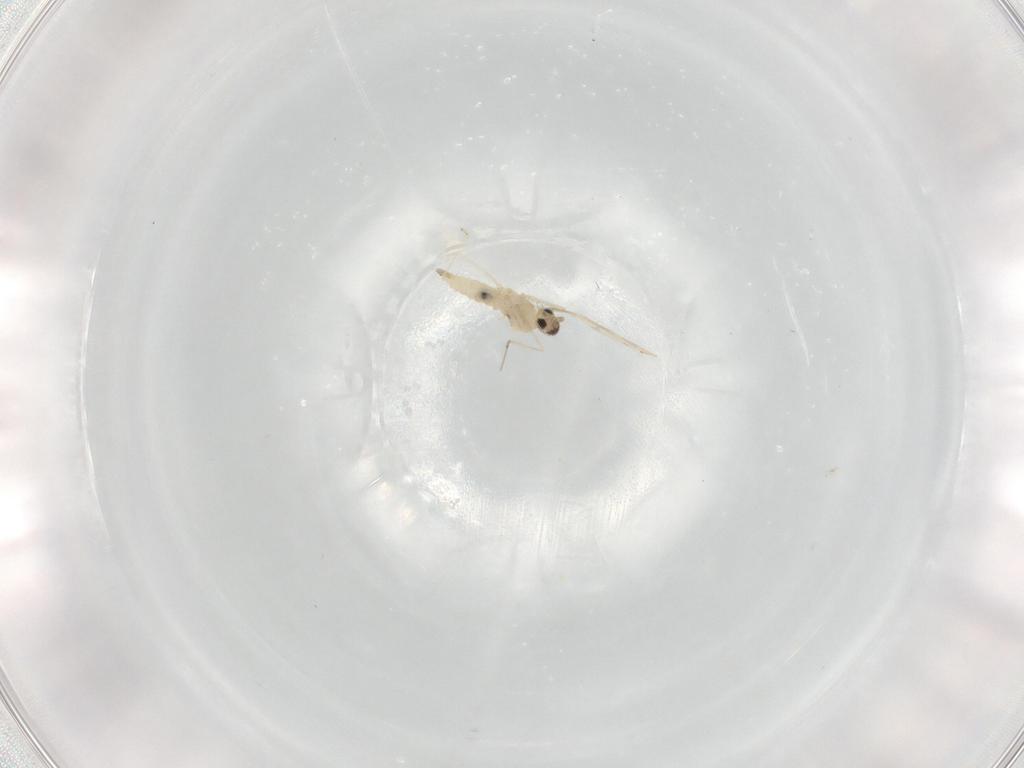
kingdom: Animalia
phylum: Arthropoda
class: Insecta
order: Diptera
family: Cecidomyiidae
